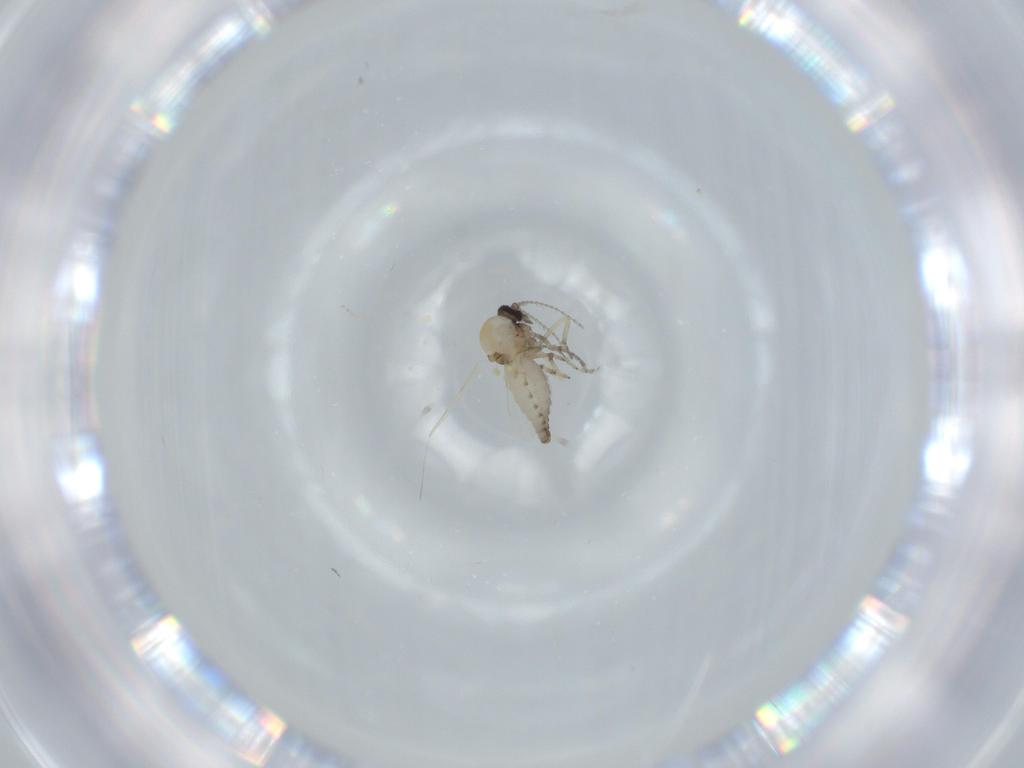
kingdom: Animalia
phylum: Arthropoda
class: Insecta
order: Diptera
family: Ceratopogonidae
